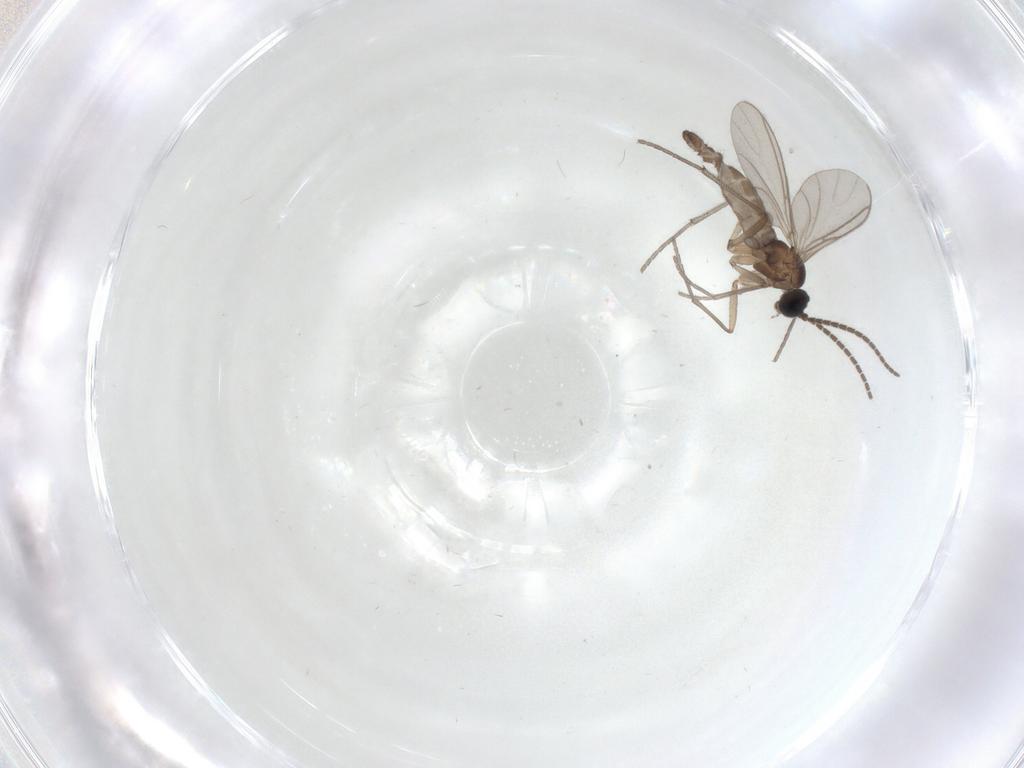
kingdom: Animalia
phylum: Arthropoda
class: Insecta
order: Diptera
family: Sciaridae
